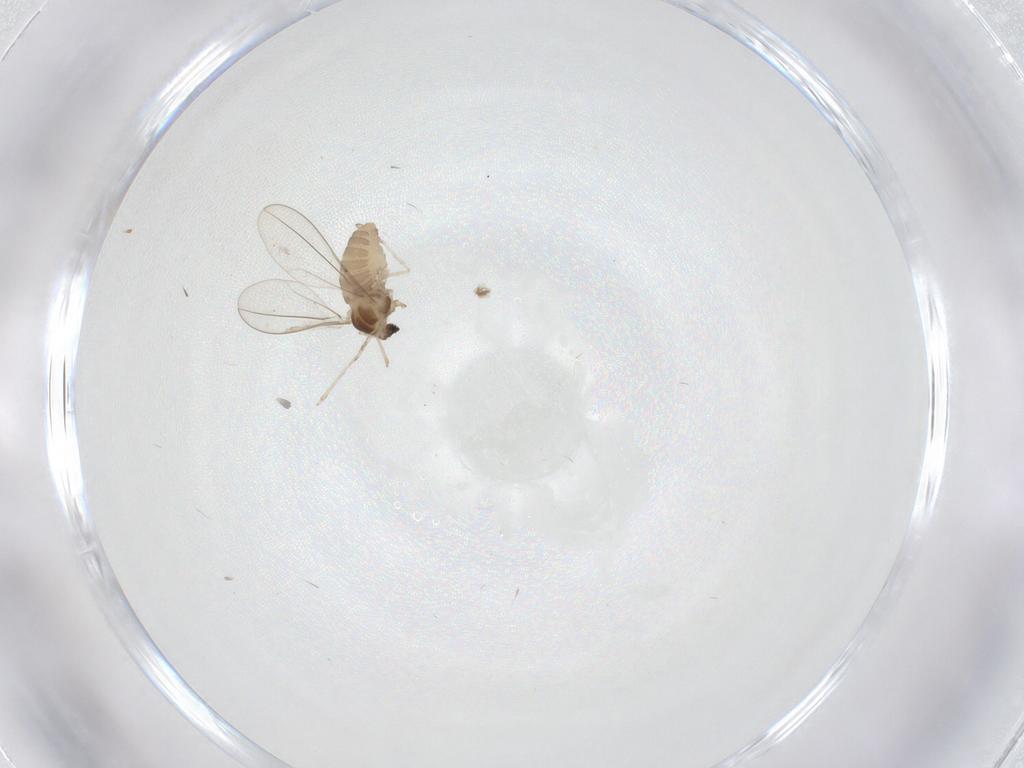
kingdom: Animalia
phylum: Arthropoda
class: Insecta
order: Diptera
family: Cecidomyiidae
